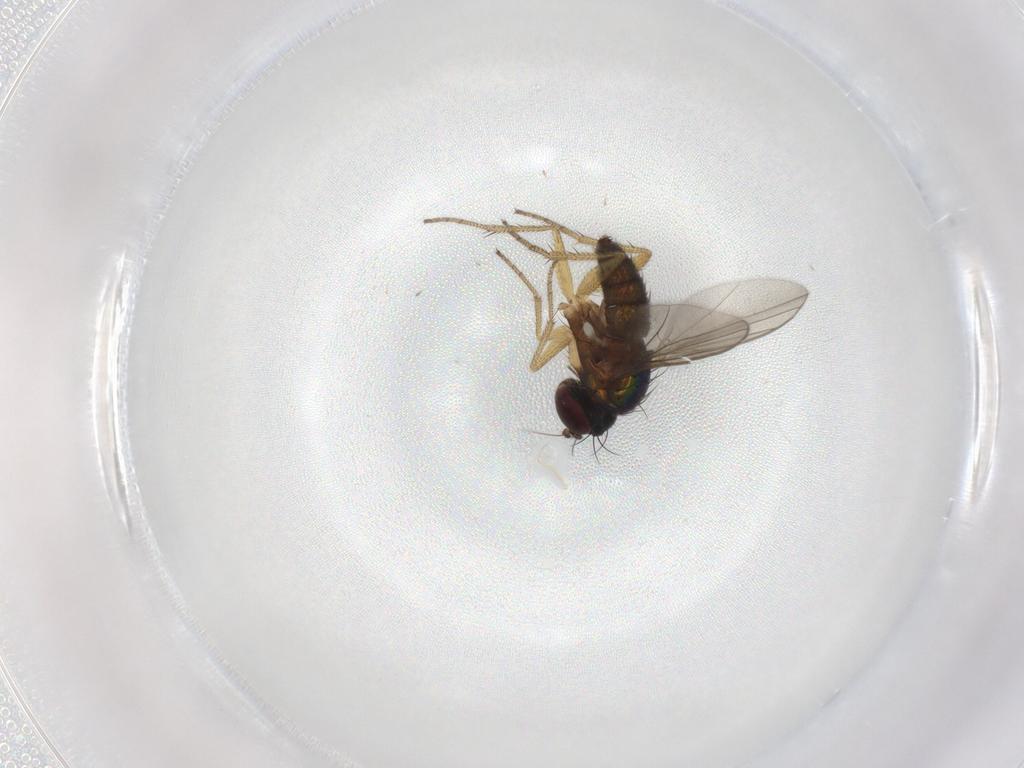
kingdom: Animalia
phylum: Arthropoda
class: Insecta
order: Diptera
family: Chironomidae
